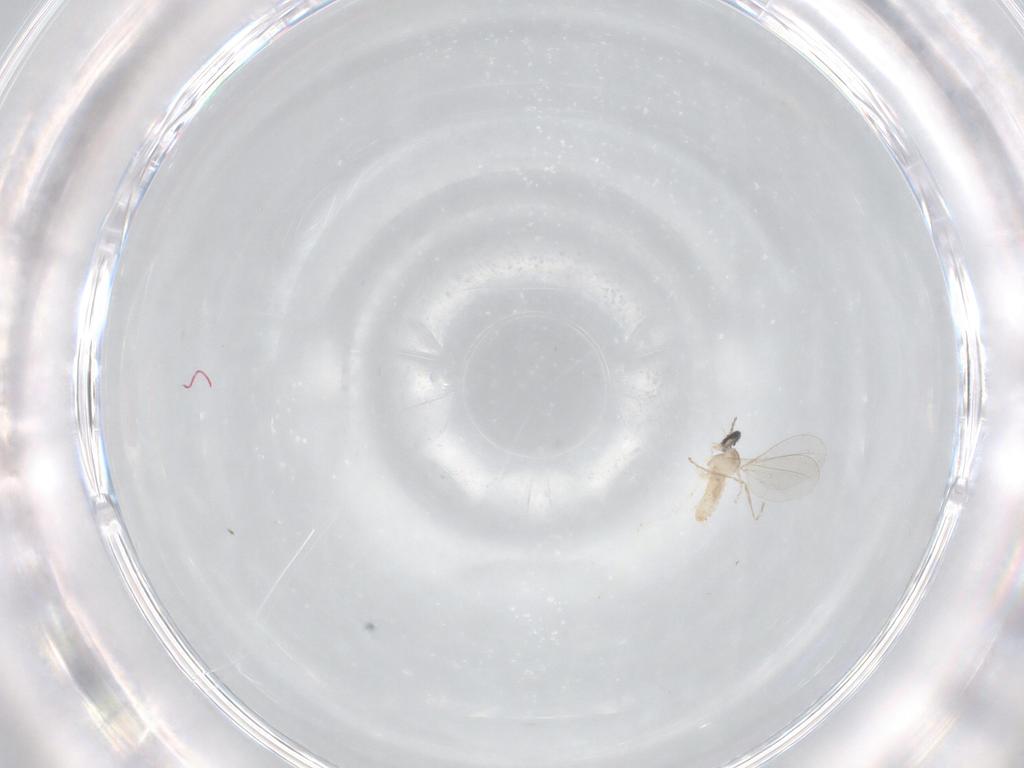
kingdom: Animalia
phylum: Arthropoda
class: Insecta
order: Diptera
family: Cecidomyiidae
